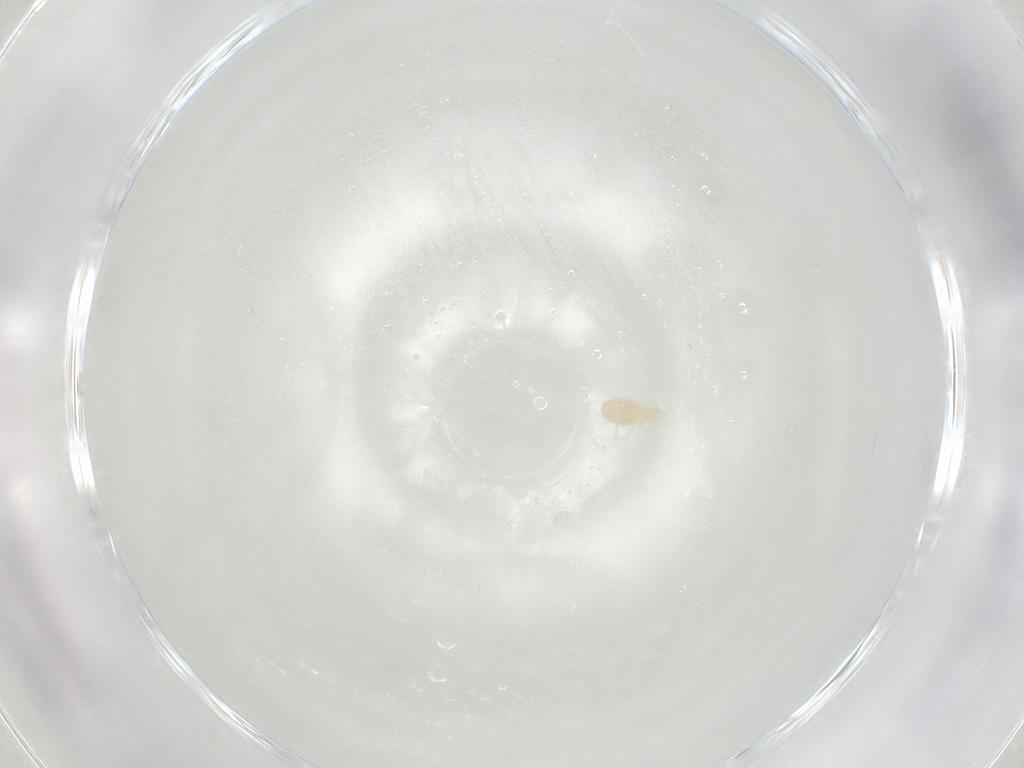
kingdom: Animalia
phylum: Arthropoda
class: Arachnida
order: Trombidiformes
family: Erythraeidae
